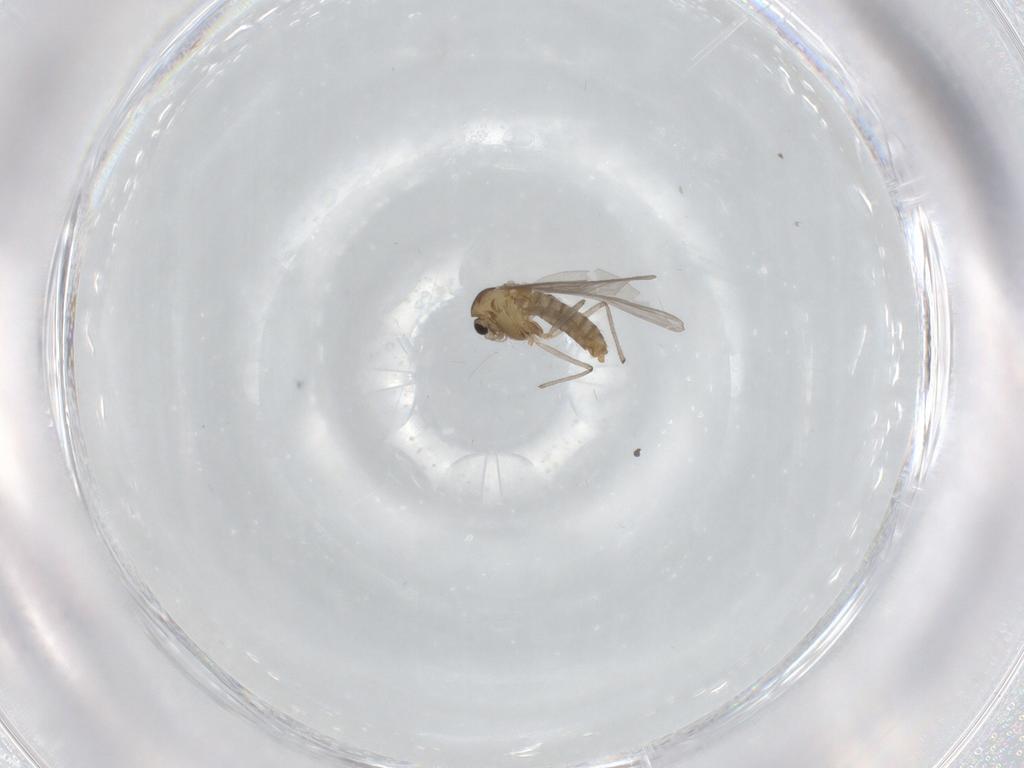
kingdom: Animalia
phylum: Arthropoda
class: Insecta
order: Diptera
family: Chironomidae
